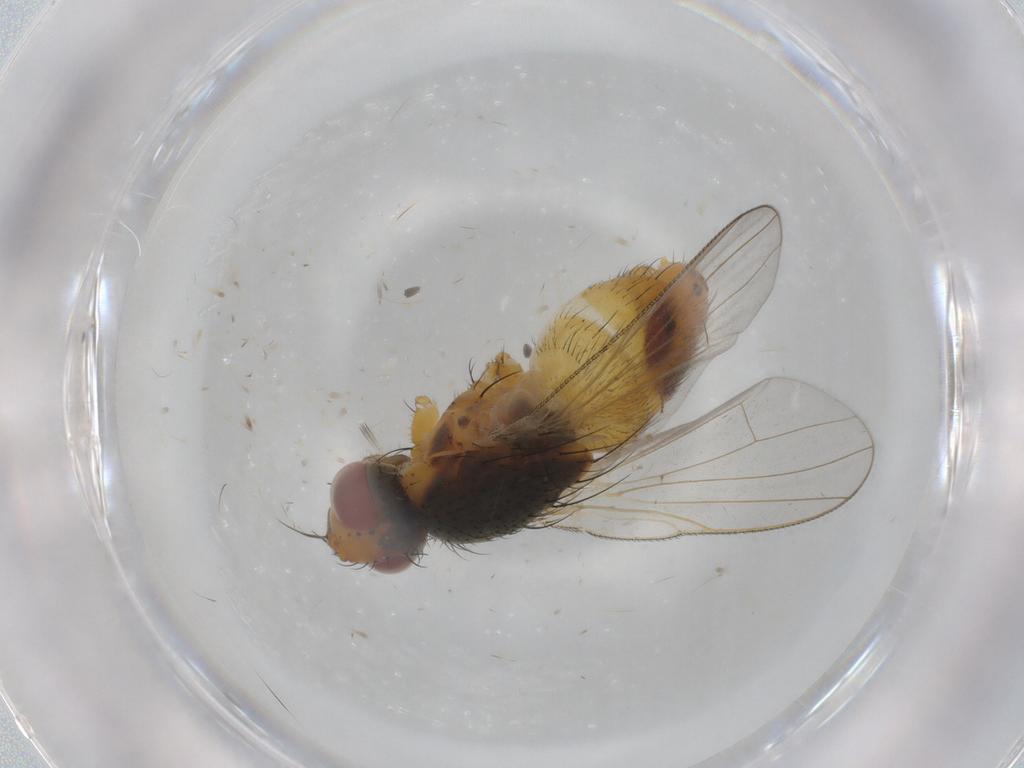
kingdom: Animalia
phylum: Arthropoda
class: Insecta
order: Diptera
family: Muscidae
